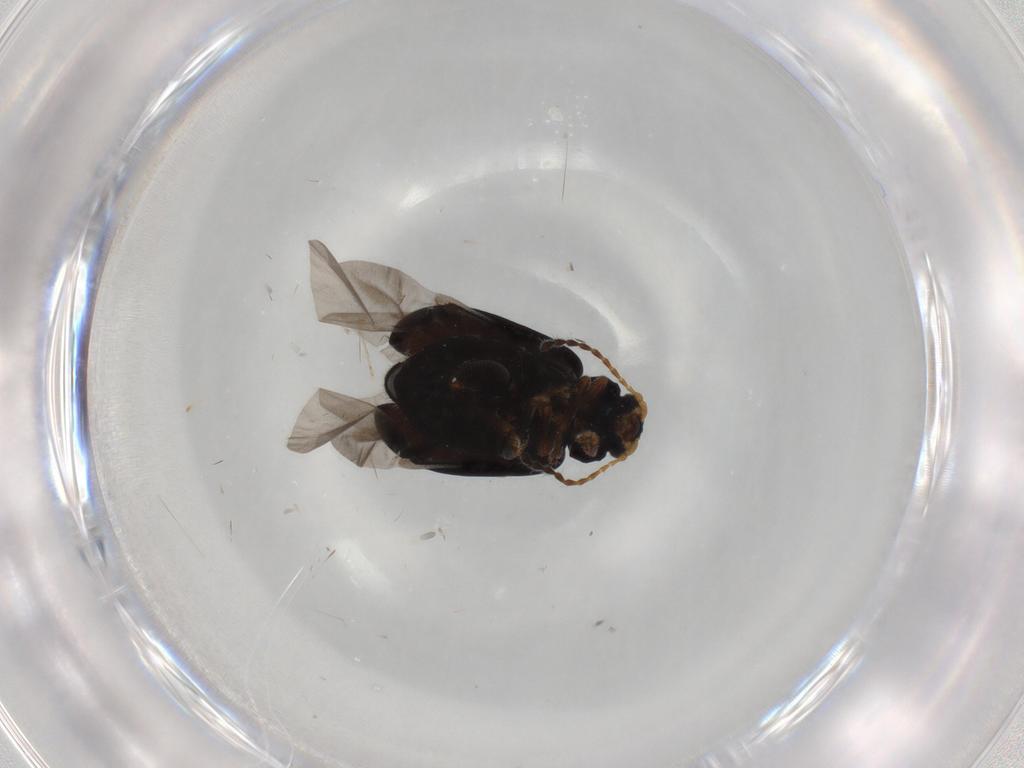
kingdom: Animalia
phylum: Arthropoda
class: Insecta
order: Coleoptera
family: Chrysomelidae
